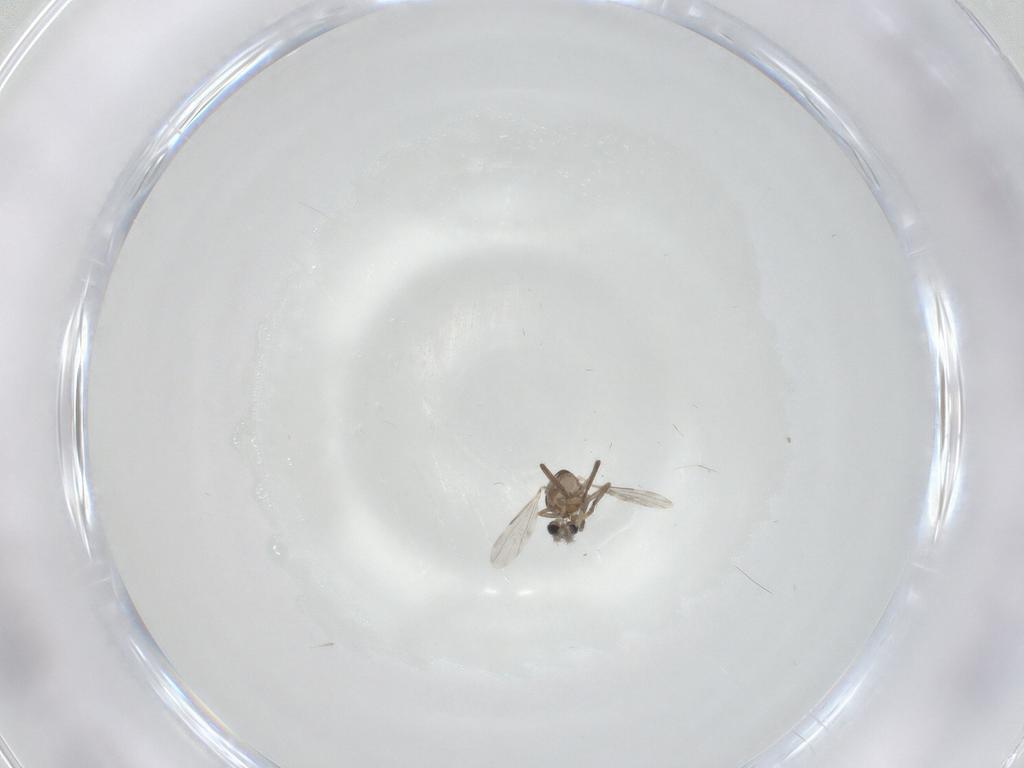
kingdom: Animalia
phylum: Arthropoda
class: Insecta
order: Diptera
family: Ceratopogonidae
